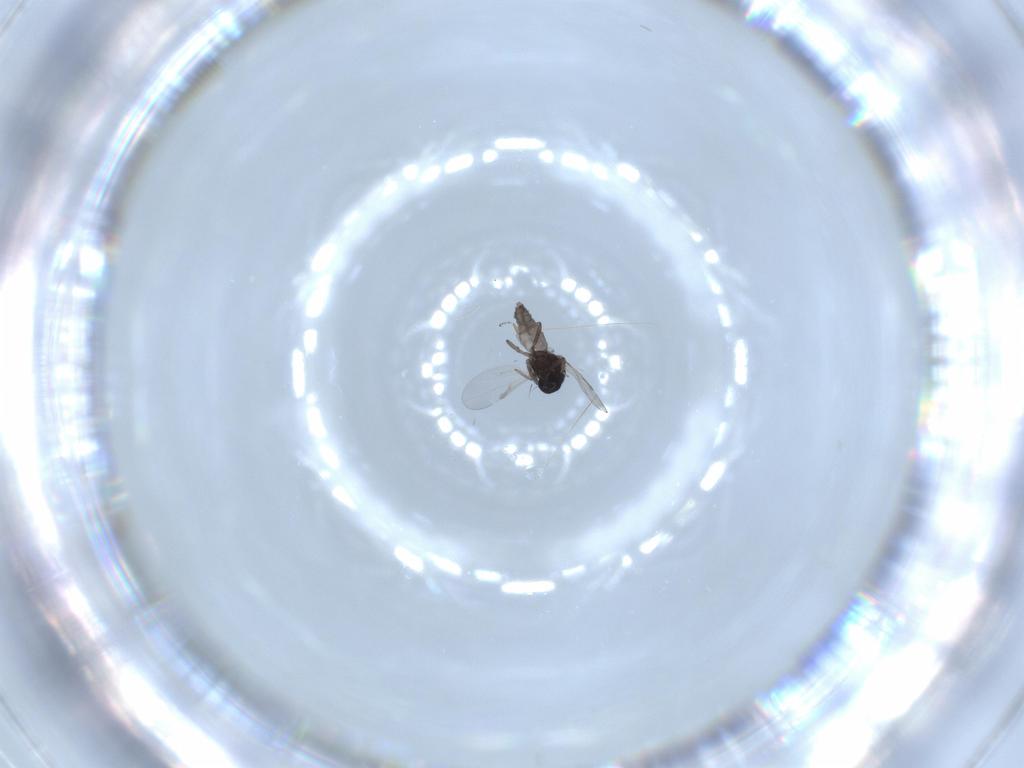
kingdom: Animalia
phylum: Arthropoda
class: Insecta
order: Diptera
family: Ceratopogonidae
